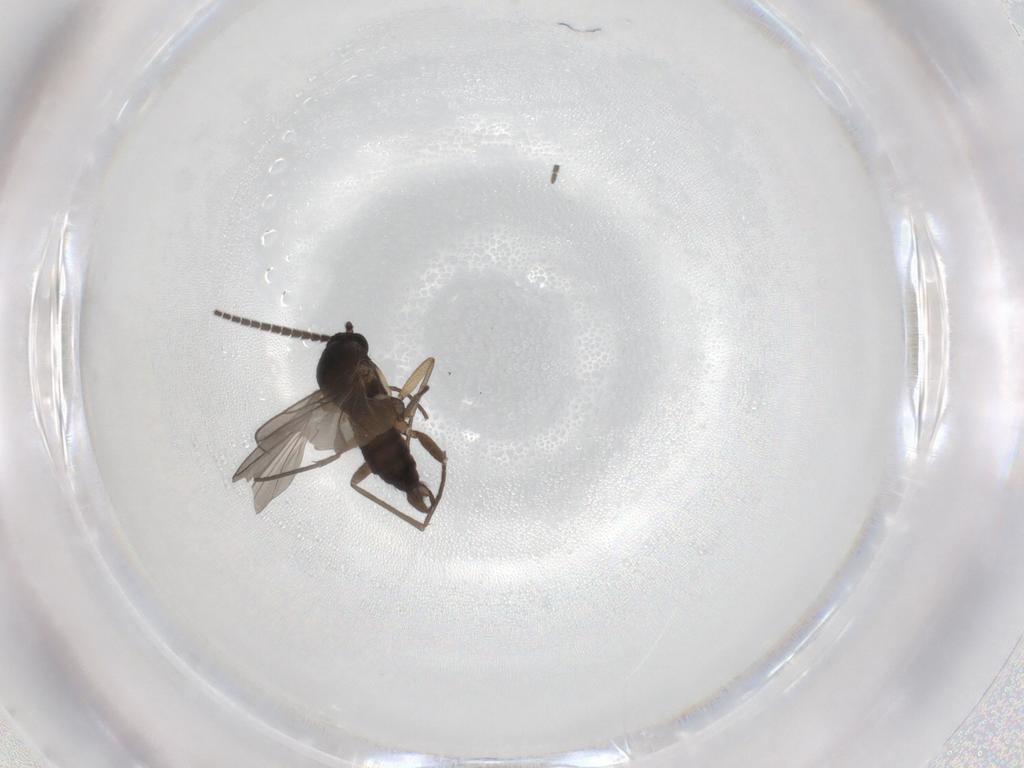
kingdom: Animalia
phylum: Arthropoda
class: Insecta
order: Diptera
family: Sciaridae
